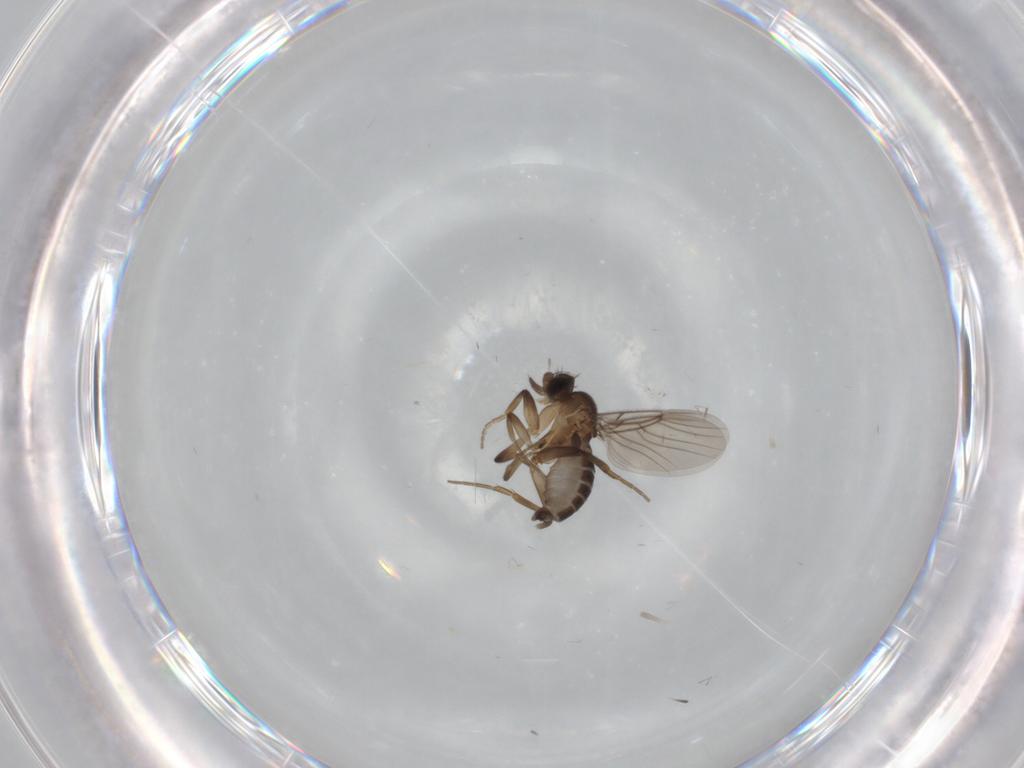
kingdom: Animalia
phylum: Arthropoda
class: Insecta
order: Diptera
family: Phoridae
